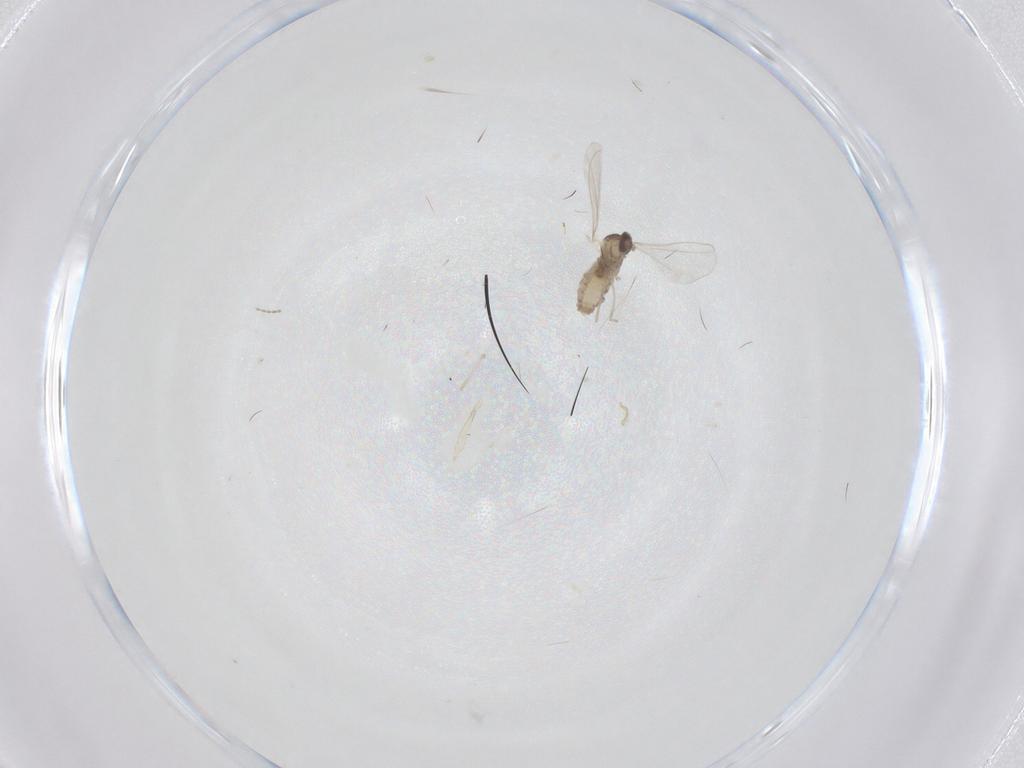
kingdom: Animalia
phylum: Arthropoda
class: Insecta
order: Diptera
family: Cecidomyiidae
